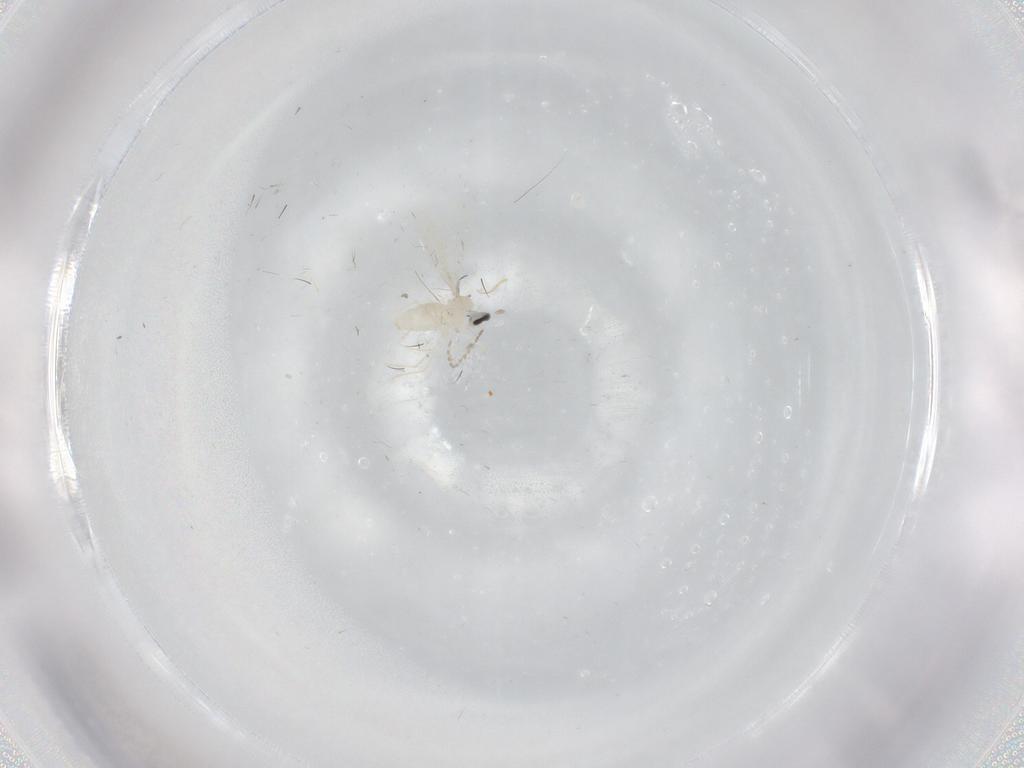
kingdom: Animalia
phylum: Arthropoda
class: Insecta
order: Diptera
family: Cecidomyiidae
